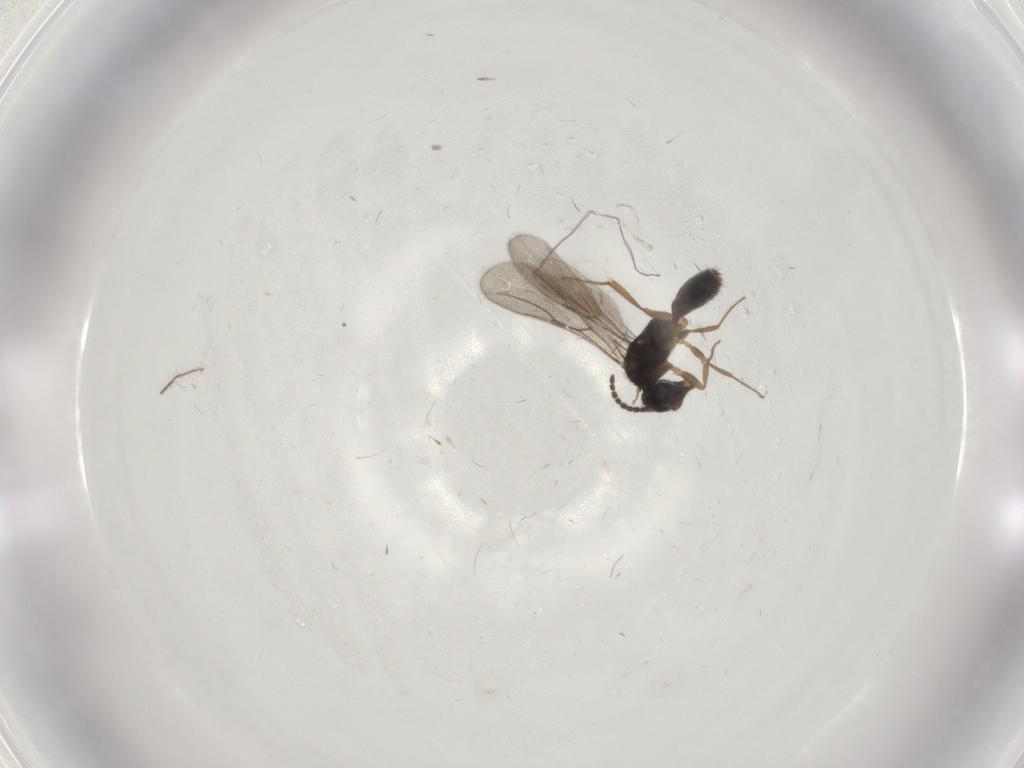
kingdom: Animalia
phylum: Arthropoda
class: Insecta
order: Hymenoptera
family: Bethylidae
